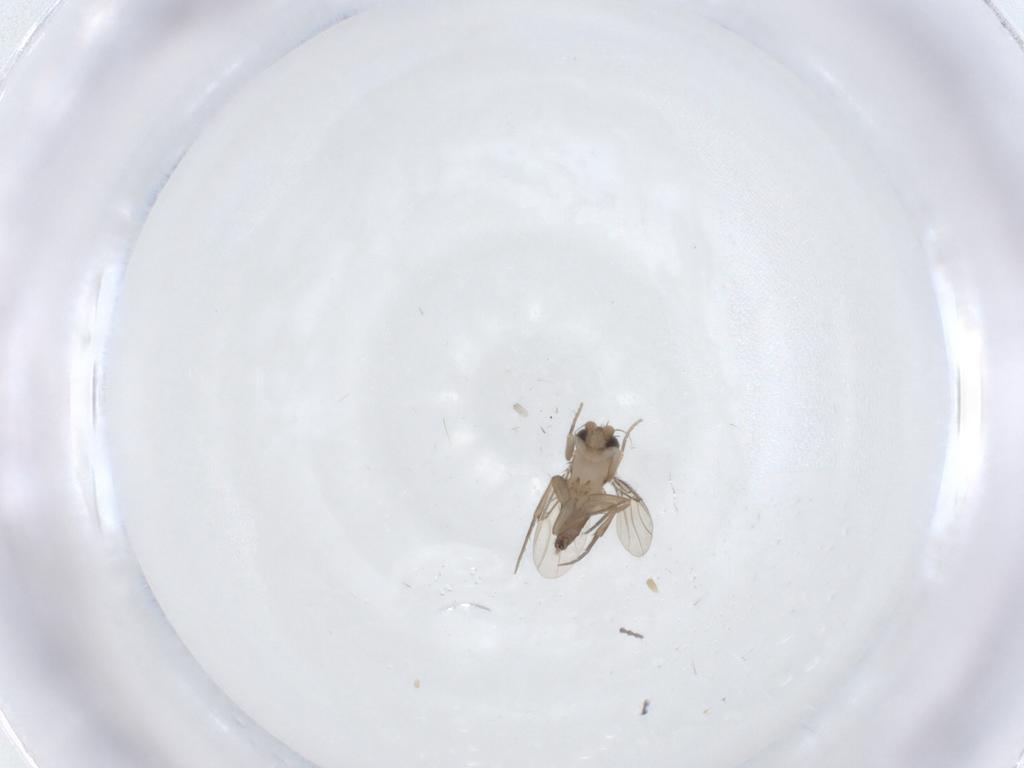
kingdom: Animalia
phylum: Arthropoda
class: Insecta
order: Diptera
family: Phoridae
